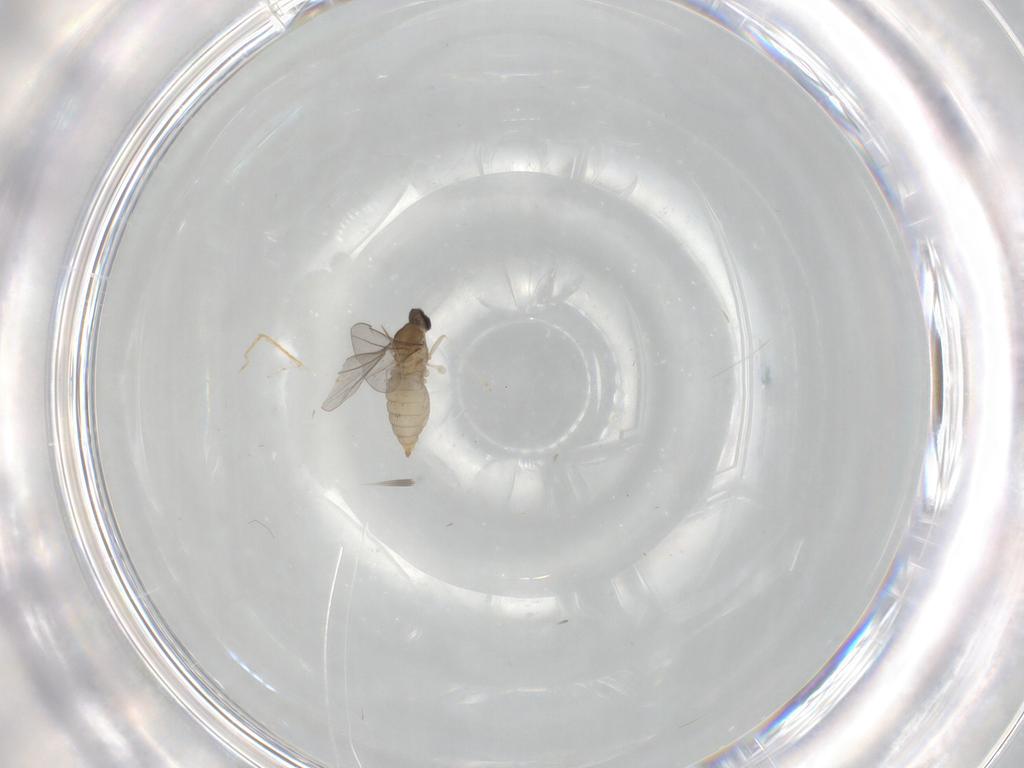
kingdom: Animalia
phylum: Arthropoda
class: Insecta
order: Diptera
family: Cecidomyiidae
